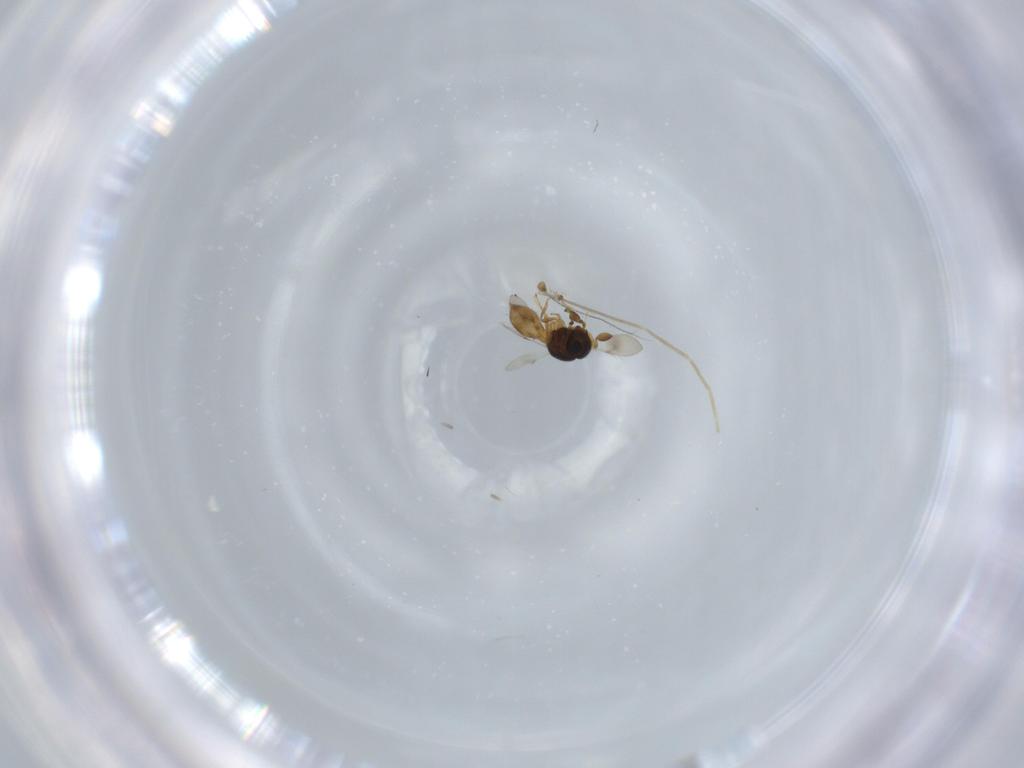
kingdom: Animalia
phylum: Arthropoda
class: Insecta
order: Hymenoptera
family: Scelionidae
